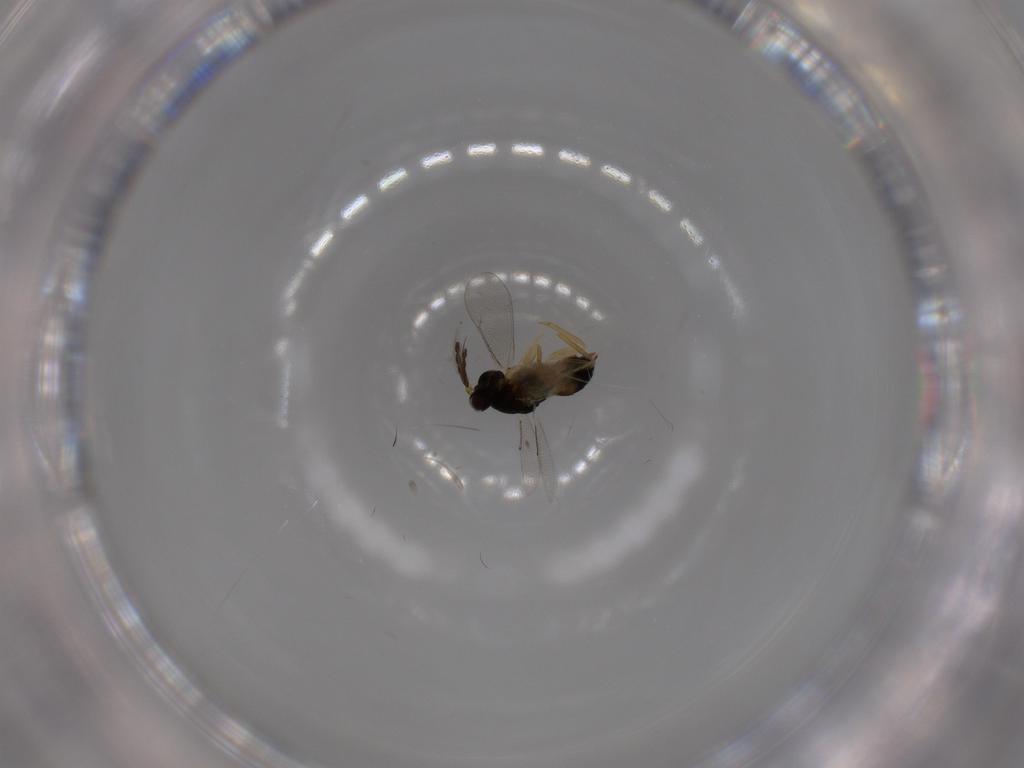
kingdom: Animalia
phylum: Arthropoda
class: Insecta
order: Hymenoptera
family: Eulophidae
